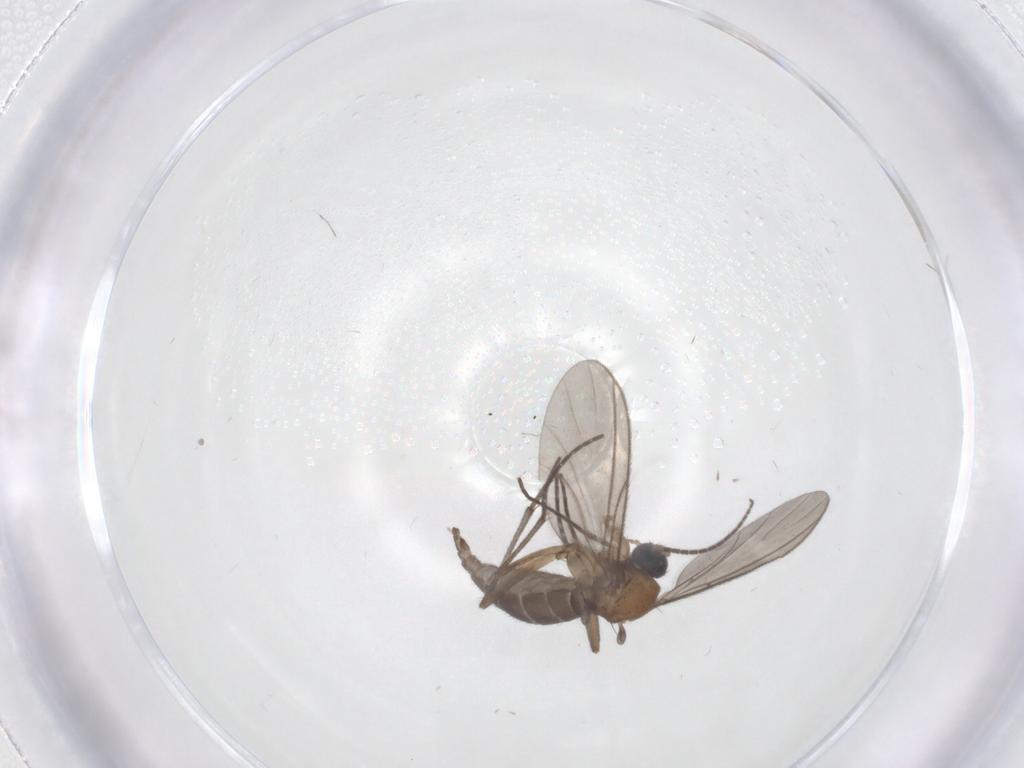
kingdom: Animalia
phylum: Arthropoda
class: Insecta
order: Diptera
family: Sciaridae
